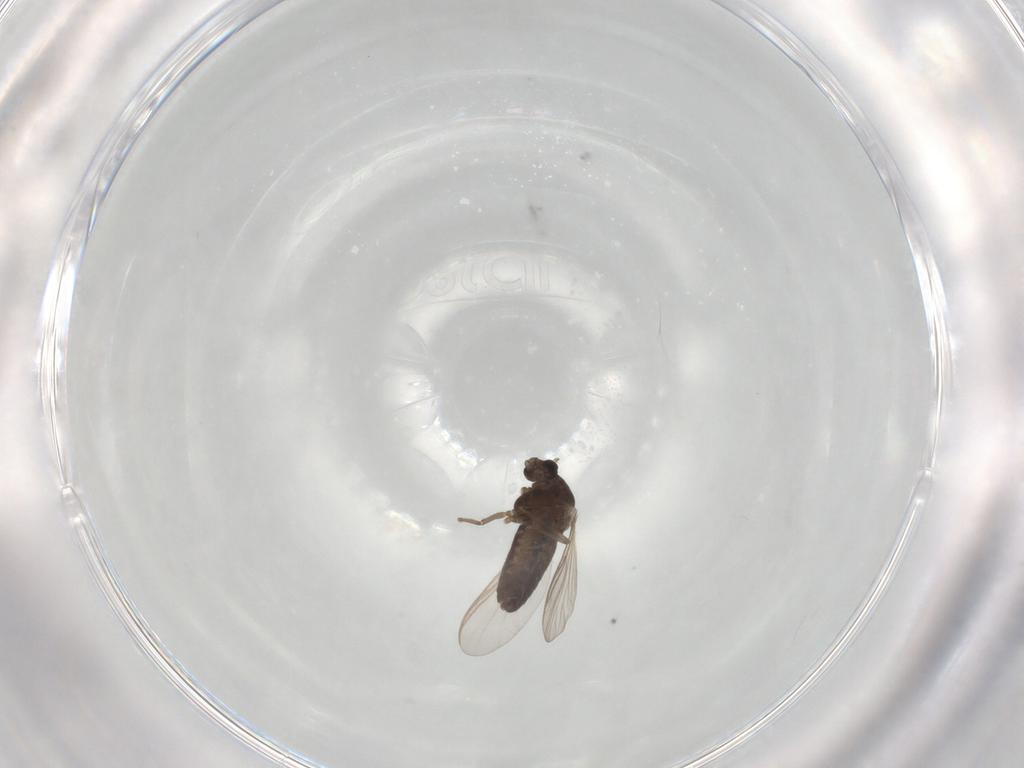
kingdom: Animalia
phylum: Arthropoda
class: Insecta
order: Diptera
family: Chironomidae
